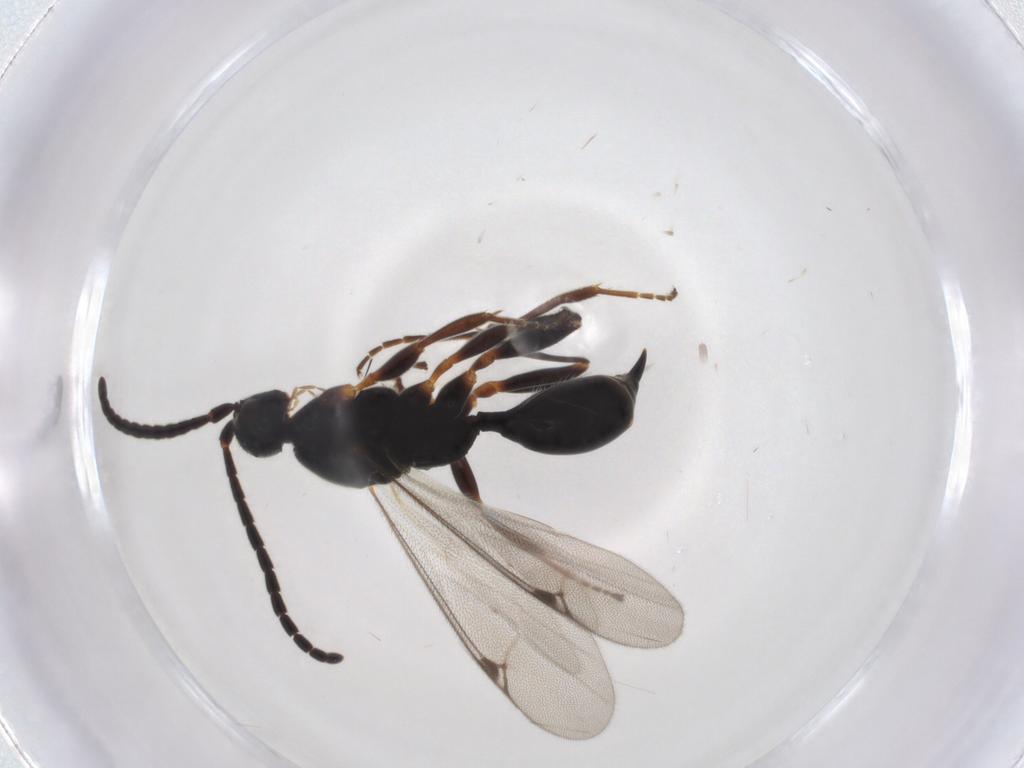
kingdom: Animalia
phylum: Arthropoda
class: Insecta
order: Hymenoptera
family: Proctotrupidae
